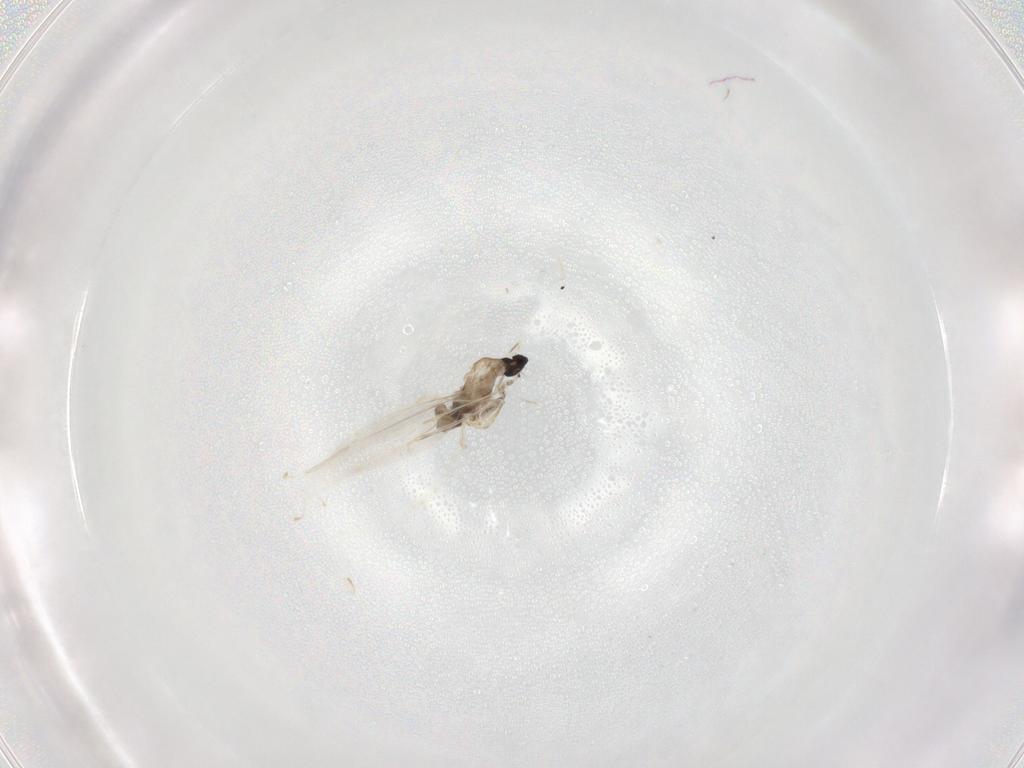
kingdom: Animalia
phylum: Arthropoda
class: Insecta
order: Diptera
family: Cecidomyiidae
